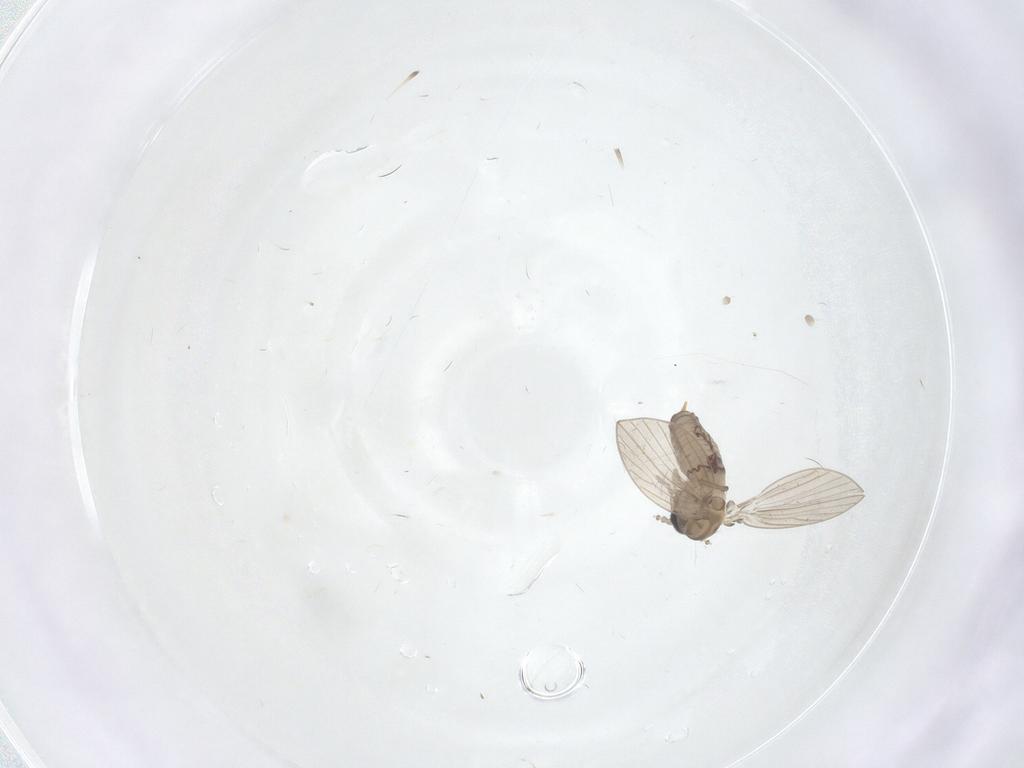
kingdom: Animalia
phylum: Arthropoda
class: Insecta
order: Diptera
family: Psychodidae
